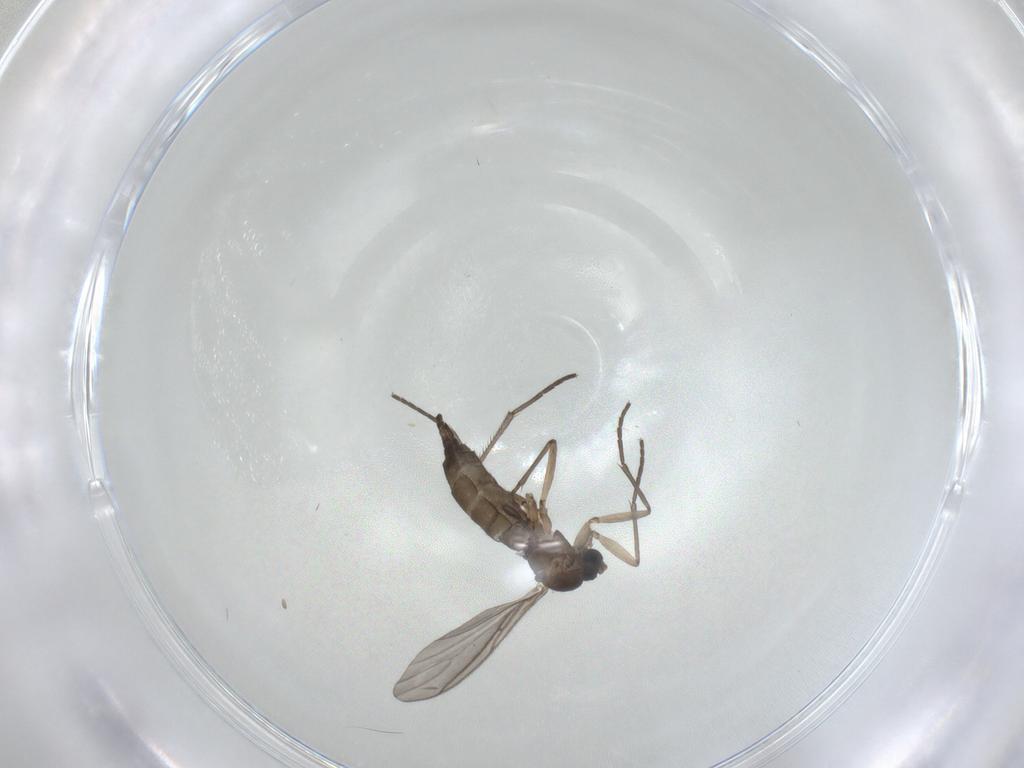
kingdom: Animalia
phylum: Arthropoda
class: Insecta
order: Diptera
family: Sciaridae
